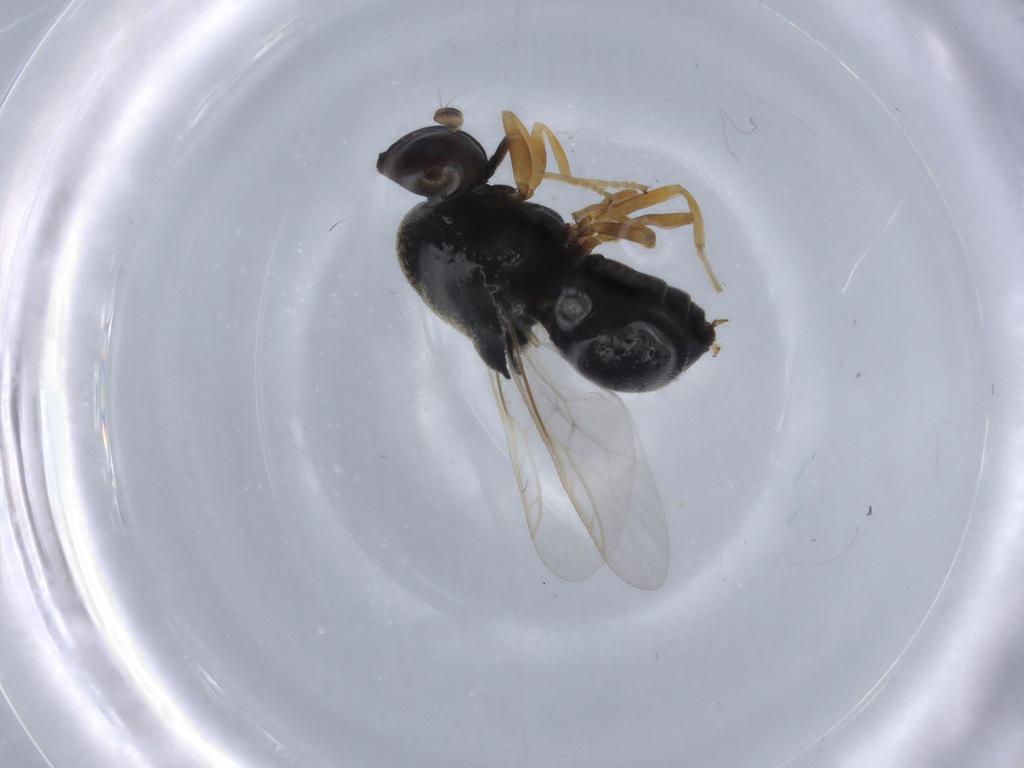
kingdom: Animalia
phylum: Arthropoda
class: Insecta
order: Diptera
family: Stratiomyidae
